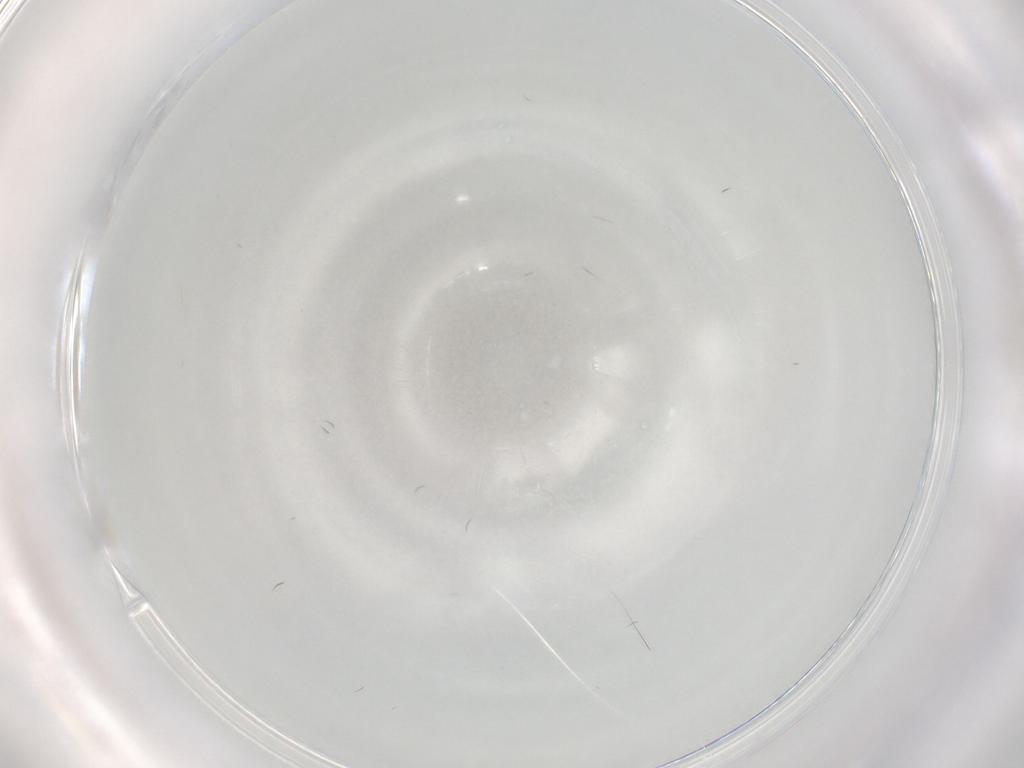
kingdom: Animalia
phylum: Arthropoda
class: Insecta
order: Diptera
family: Chironomidae
